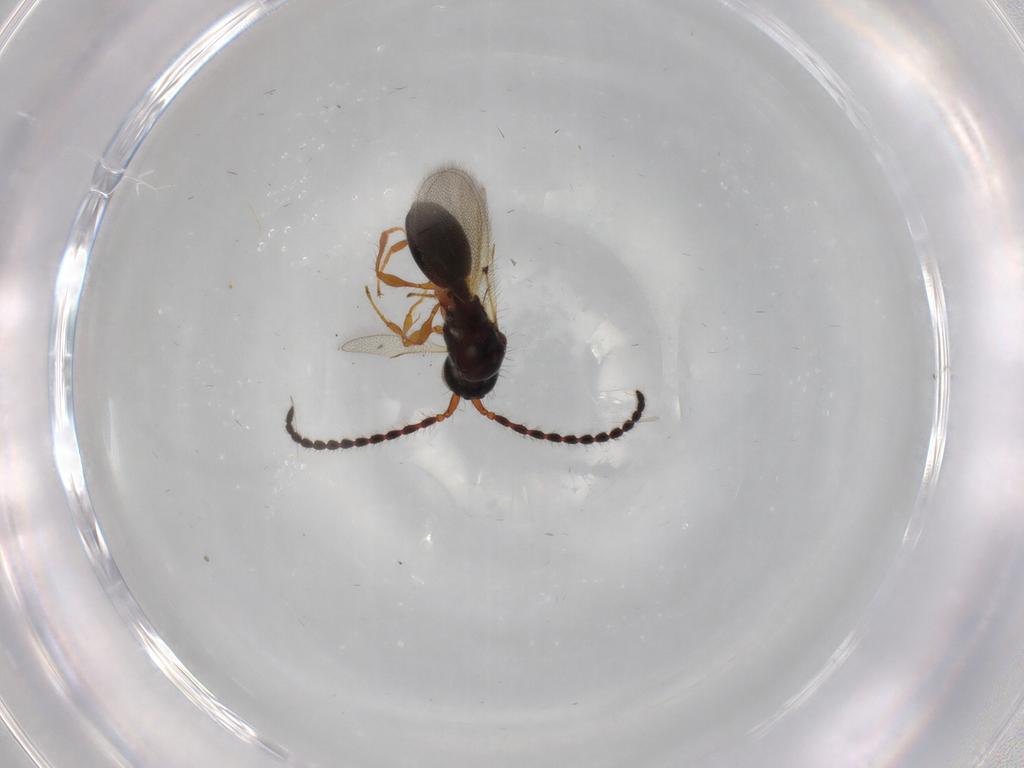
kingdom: Animalia
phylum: Arthropoda
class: Insecta
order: Hymenoptera
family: Diapriidae
